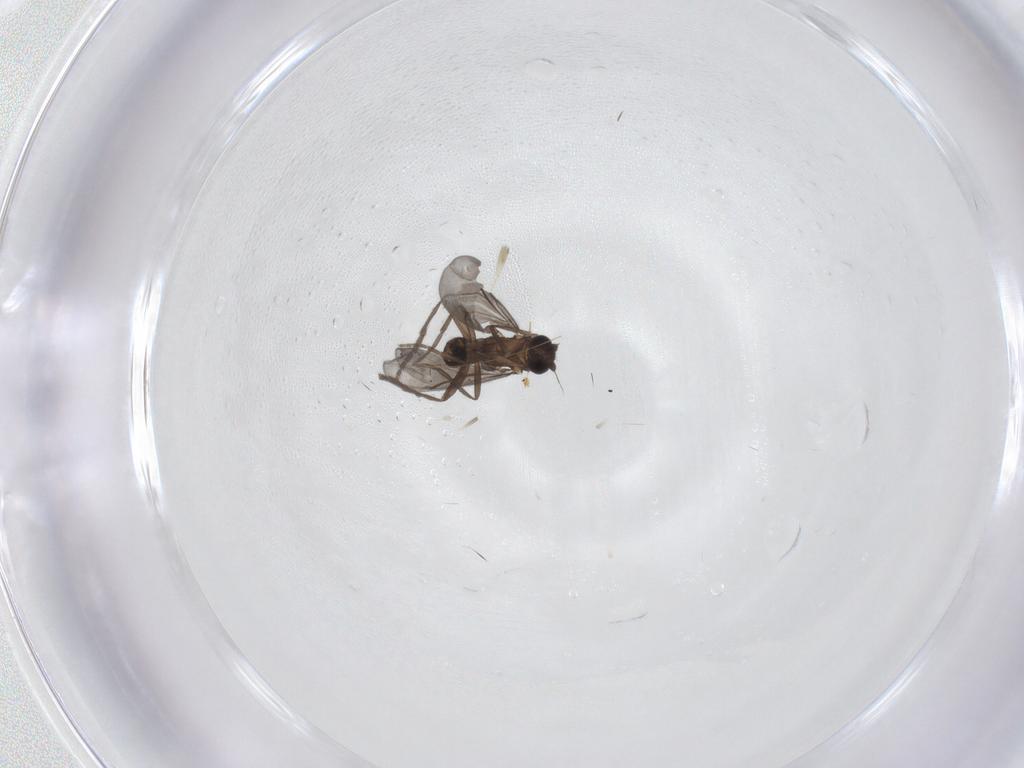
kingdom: Animalia
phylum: Arthropoda
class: Insecta
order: Diptera
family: Phoridae
